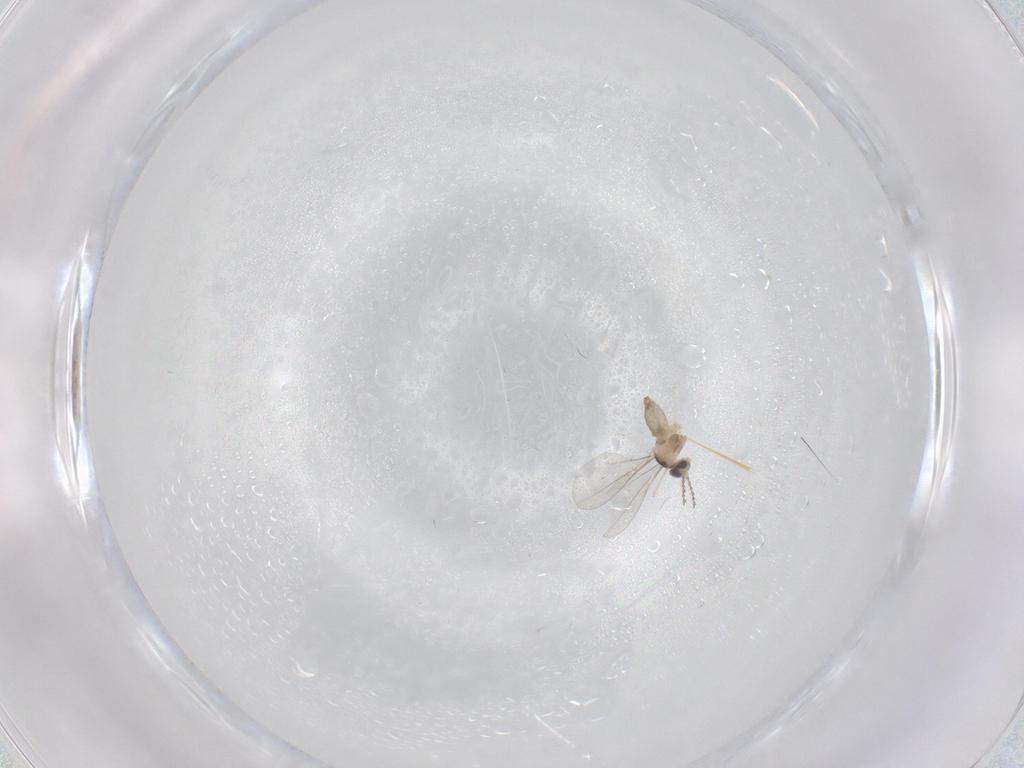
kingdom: Animalia
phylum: Arthropoda
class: Insecta
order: Diptera
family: Cecidomyiidae
